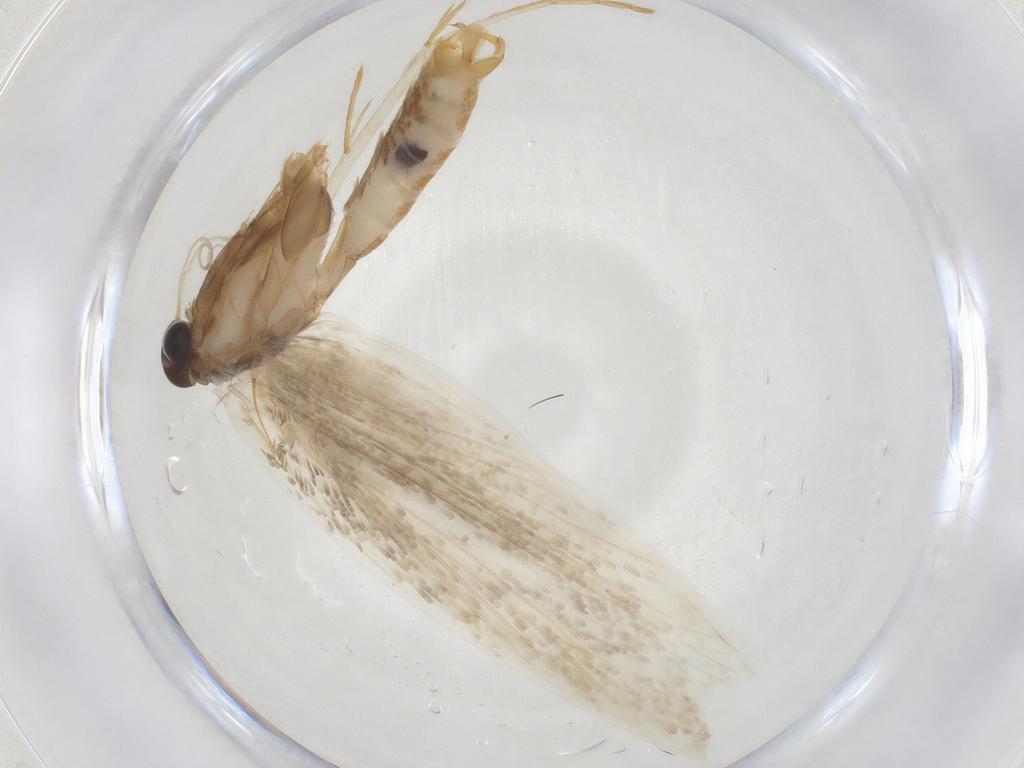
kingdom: Animalia
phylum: Arthropoda
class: Insecta
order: Lepidoptera
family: Erebidae
